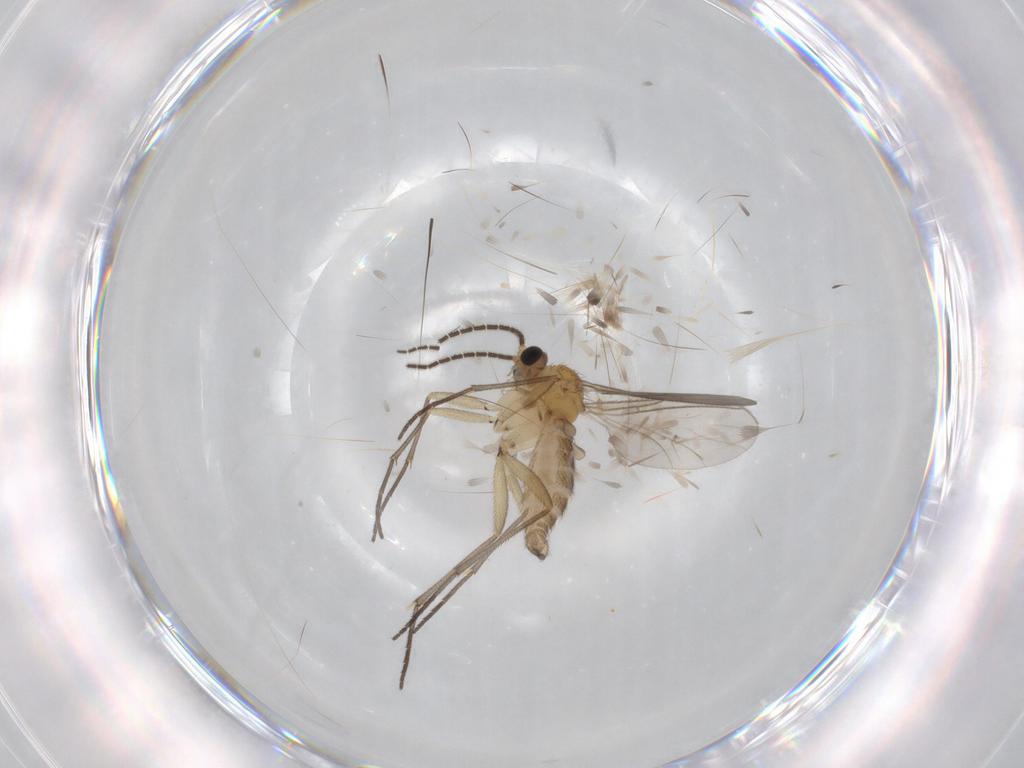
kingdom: Animalia
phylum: Arthropoda
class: Insecta
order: Diptera
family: Sciaridae
